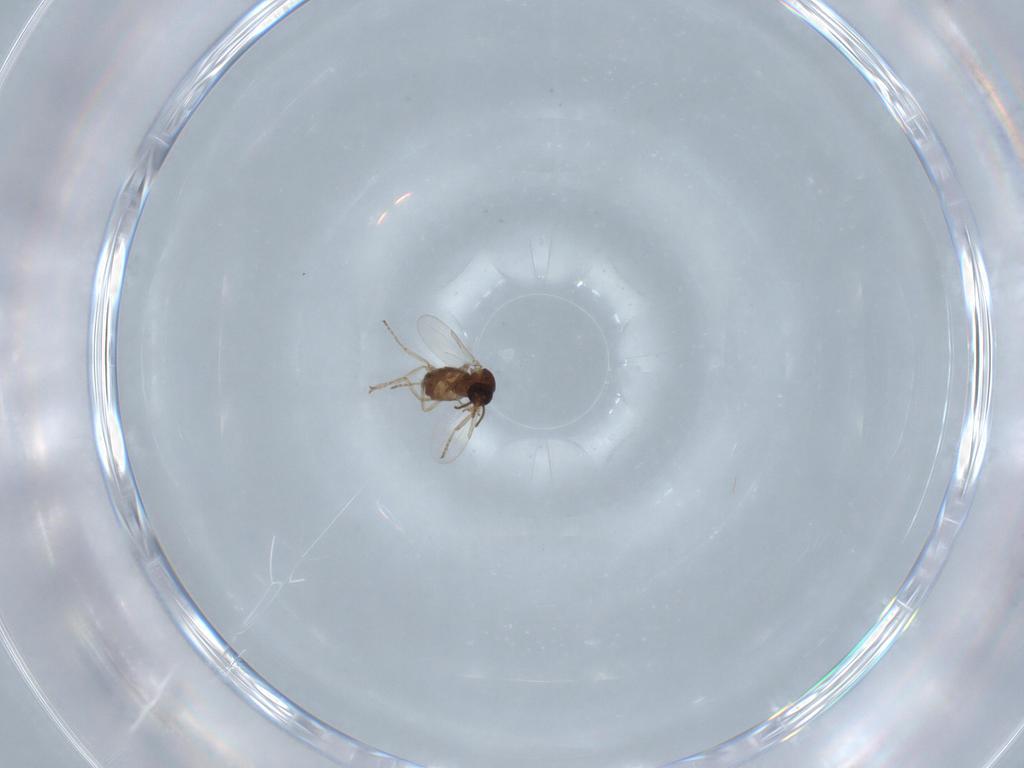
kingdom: Animalia
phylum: Arthropoda
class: Insecta
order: Diptera
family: Ceratopogonidae
